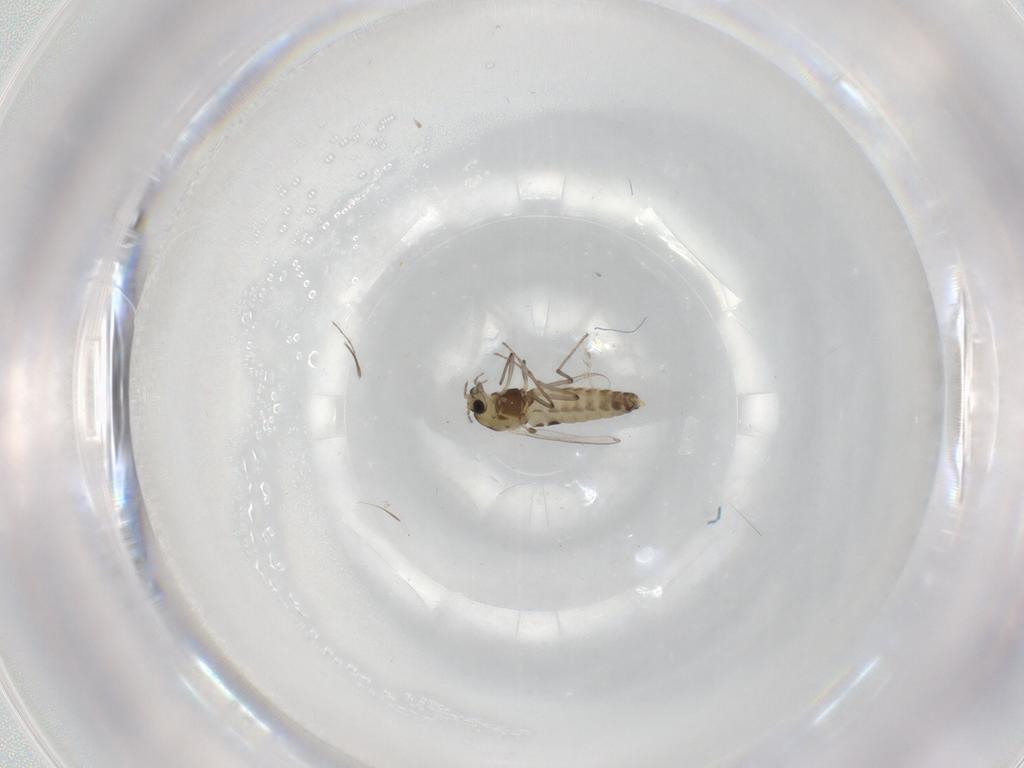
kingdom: Animalia
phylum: Arthropoda
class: Insecta
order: Diptera
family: Chironomidae
